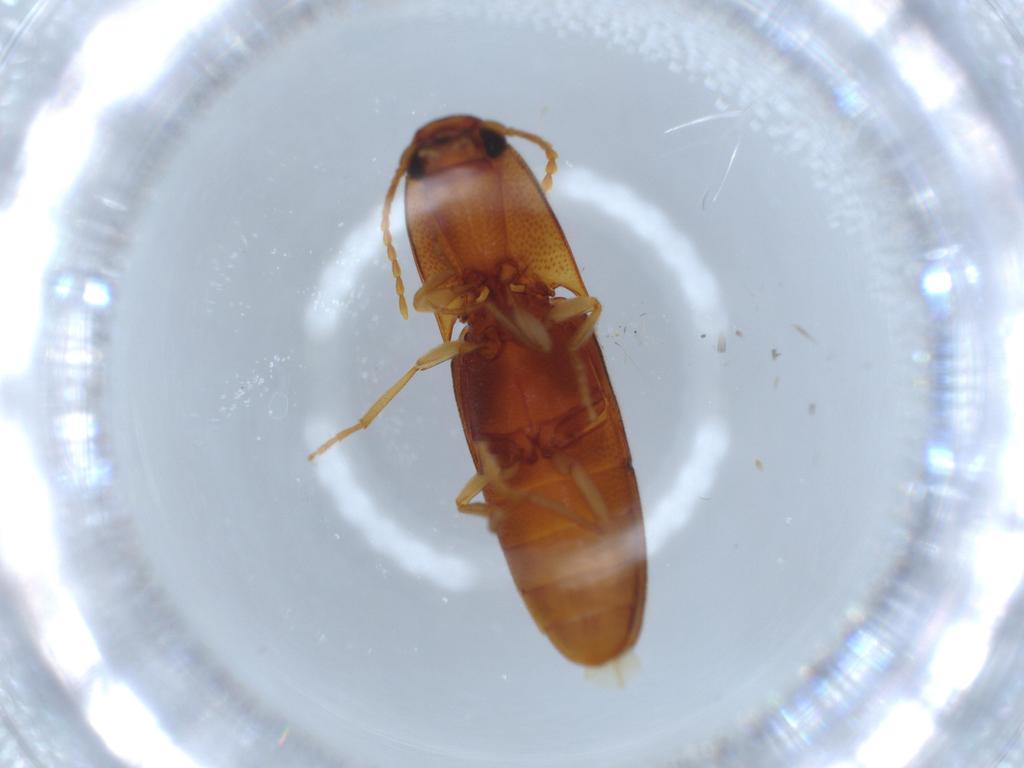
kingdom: Animalia
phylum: Arthropoda
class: Insecta
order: Coleoptera
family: Elateridae
